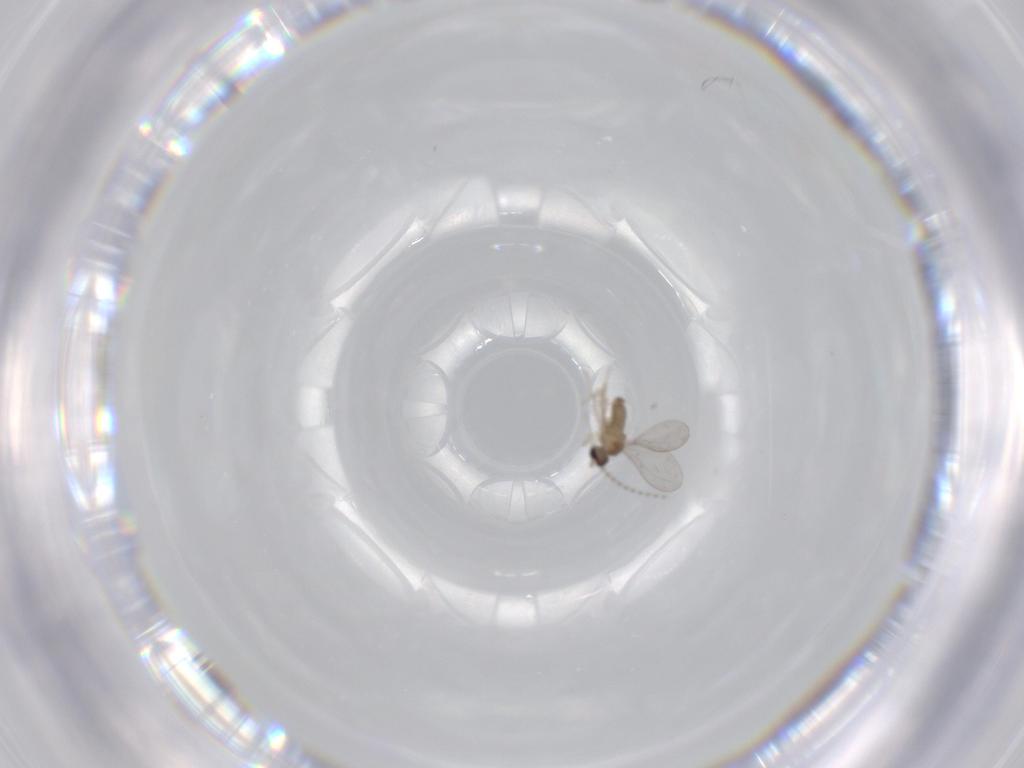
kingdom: Animalia
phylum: Arthropoda
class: Insecta
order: Diptera
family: Cecidomyiidae
